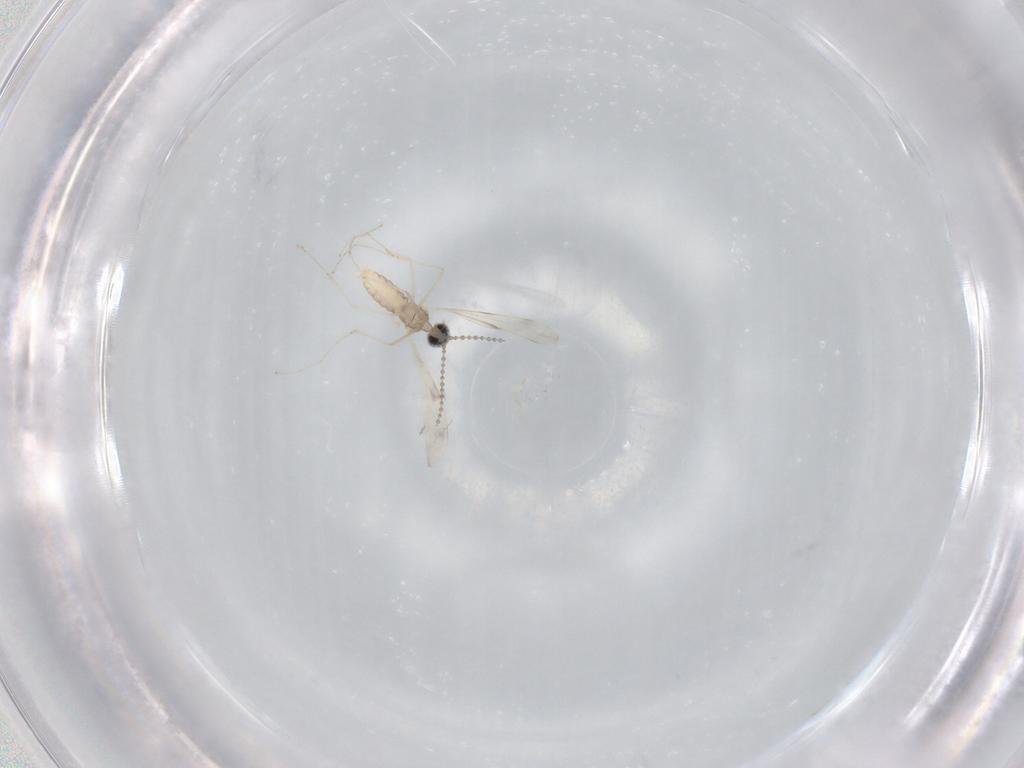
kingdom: Animalia
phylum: Arthropoda
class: Insecta
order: Diptera
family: Cecidomyiidae
